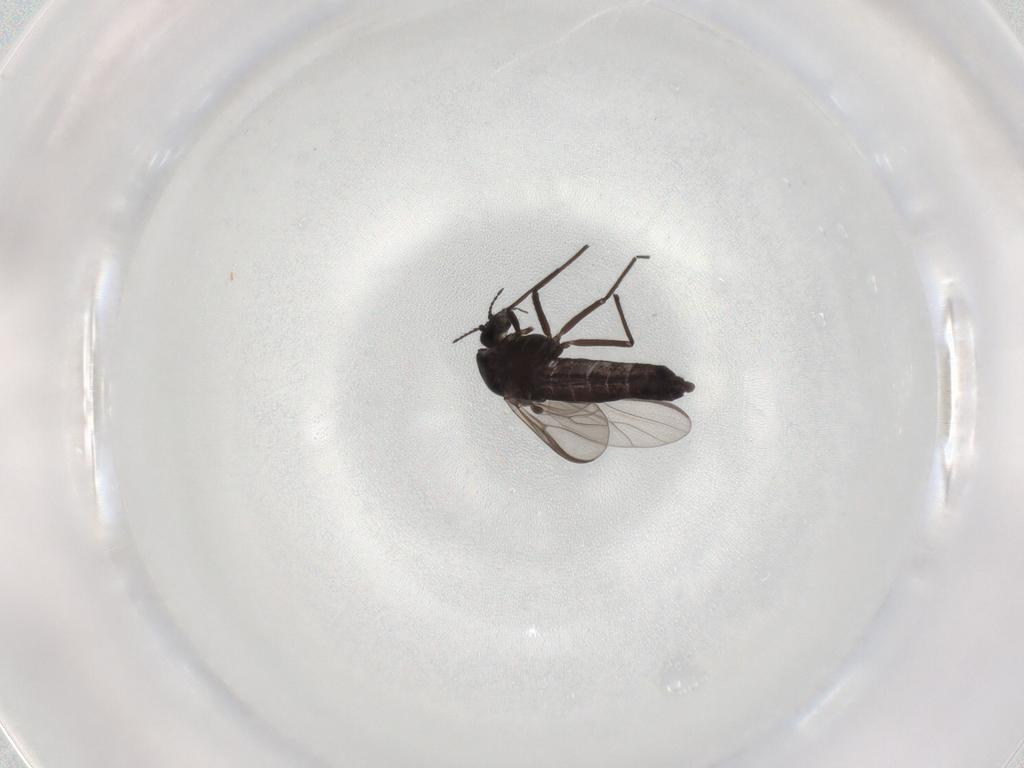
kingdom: Animalia
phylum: Arthropoda
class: Insecta
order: Diptera
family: Chironomidae
